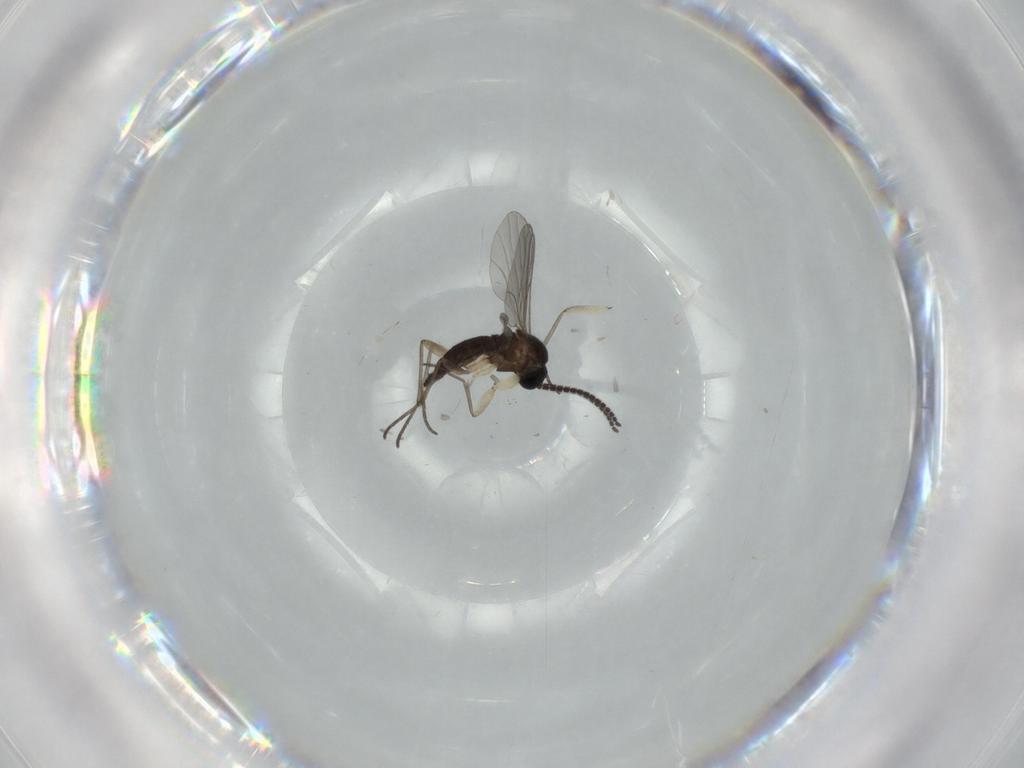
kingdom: Animalia
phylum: Arthropoda
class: Insecta
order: Diptera
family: Sciaridae
